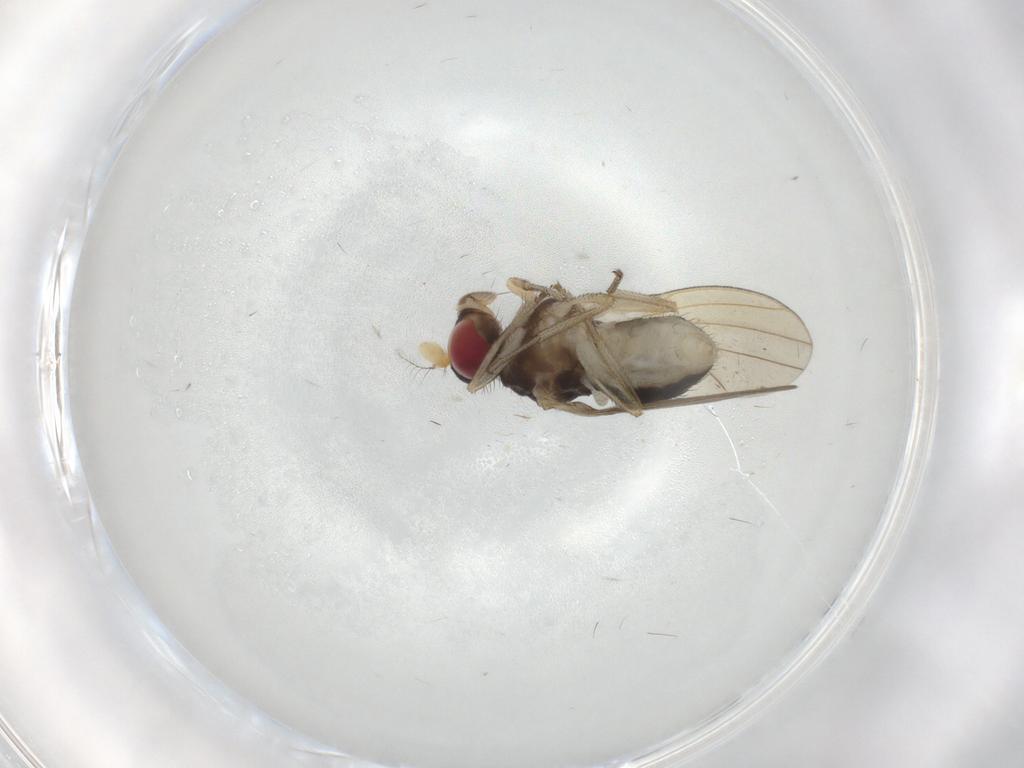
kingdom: Animalia
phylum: Arthropoda
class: Insecta
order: Diptera
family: Lauxaniidae
